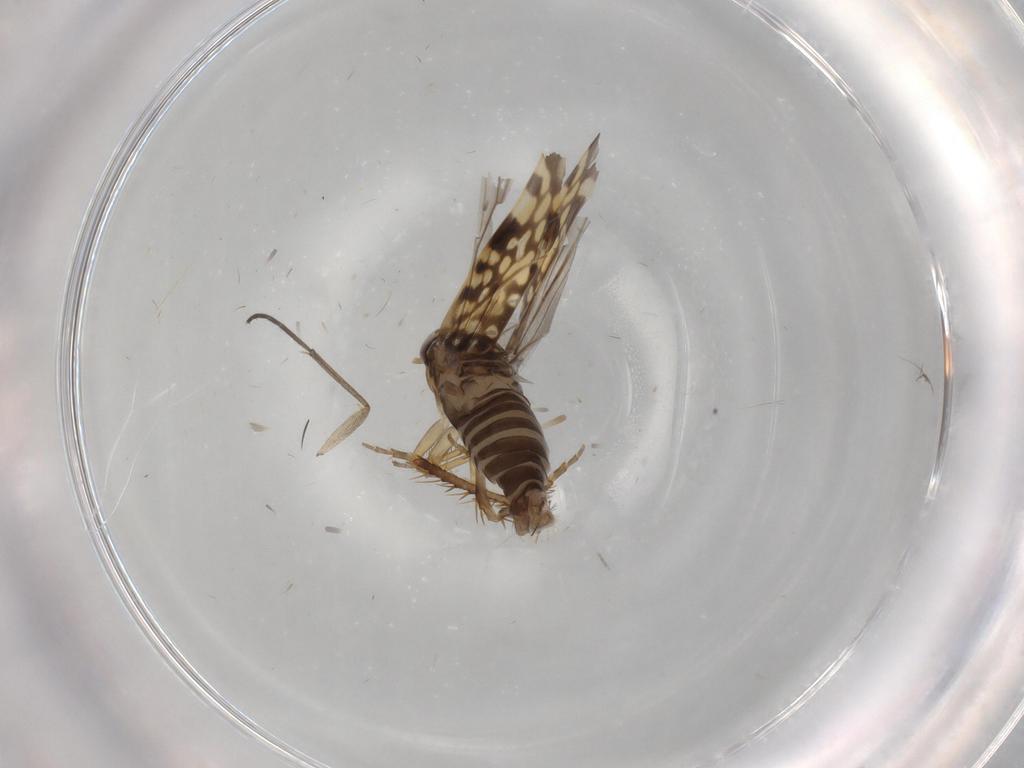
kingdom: Animalia
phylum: Arthropoda
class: Insecta
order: Hemiptera
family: Cicadellidae
